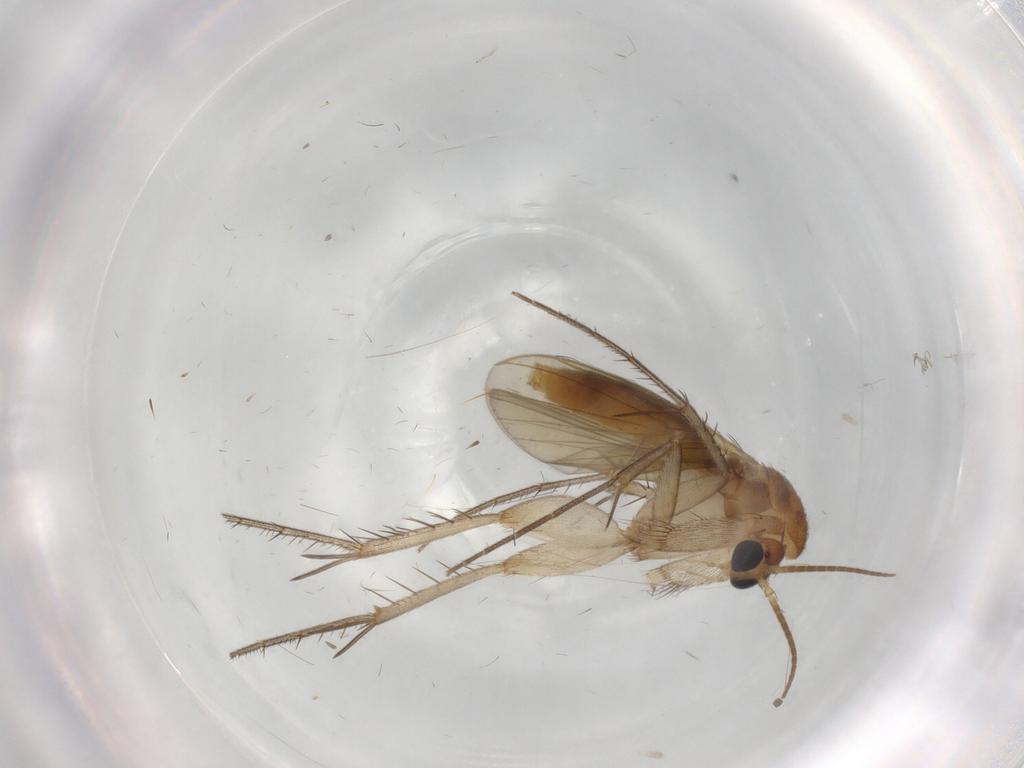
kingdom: Animalia
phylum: Arthropoda
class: Insecta
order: Diptera
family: Mycetophilidae
